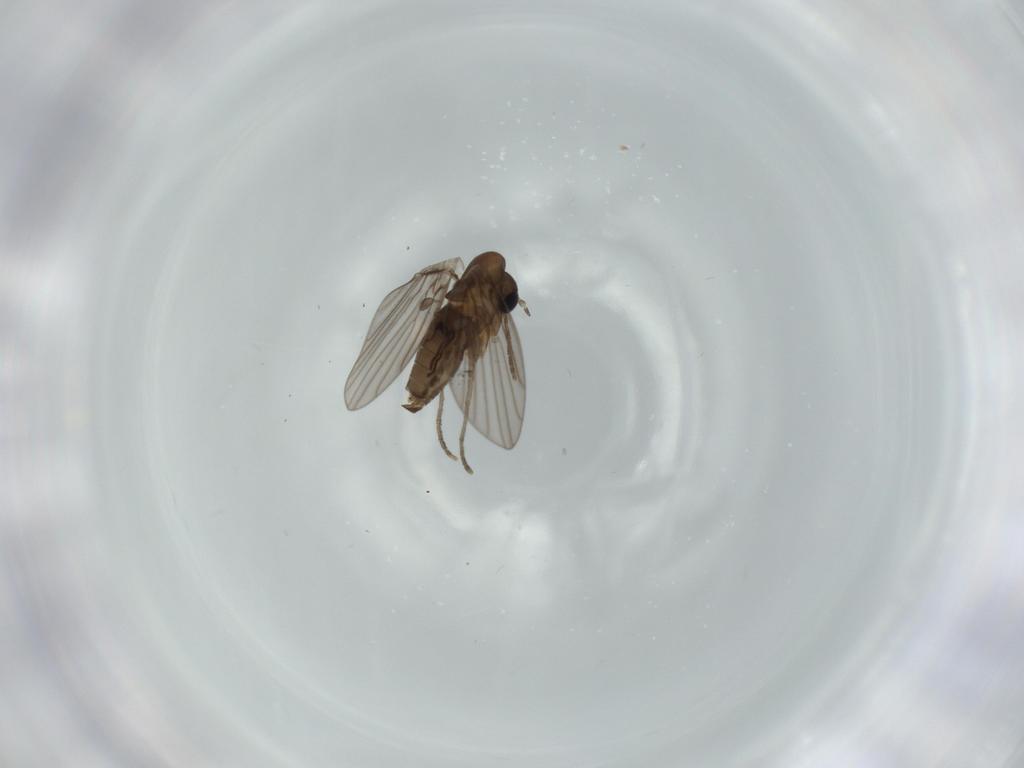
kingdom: Animalia
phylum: Arthropoda
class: Insecta
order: Diptera
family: Psychodidae
